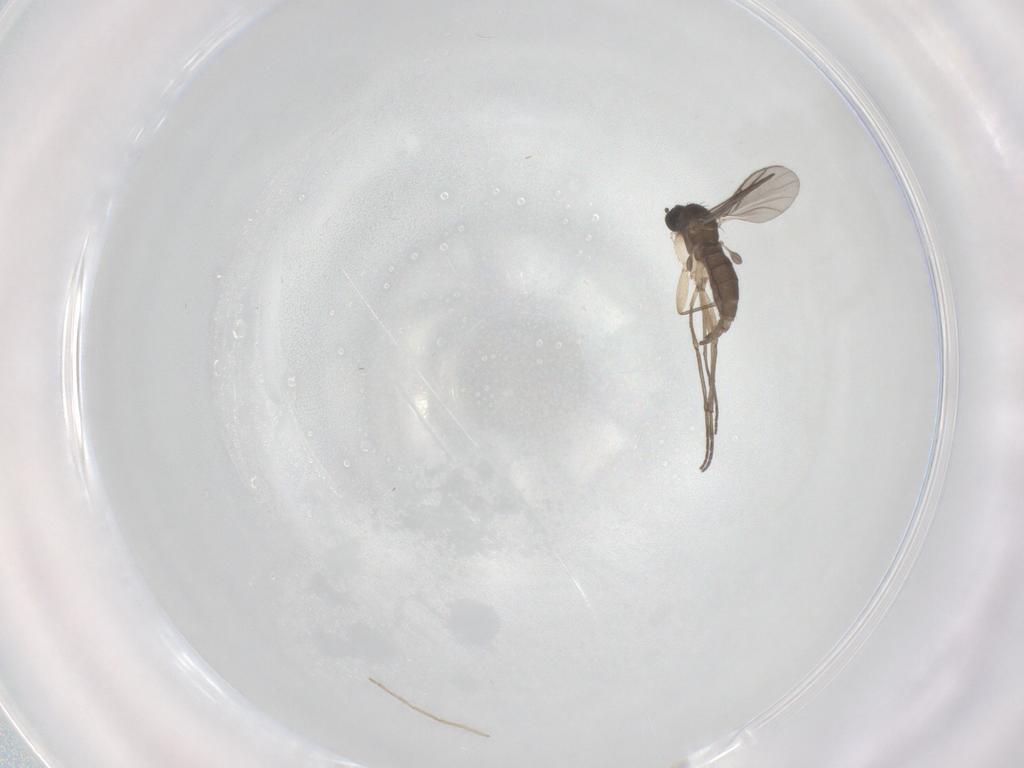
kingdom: Animalia
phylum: Arthropoda
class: Insecta
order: Diptera
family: Sciaridae
